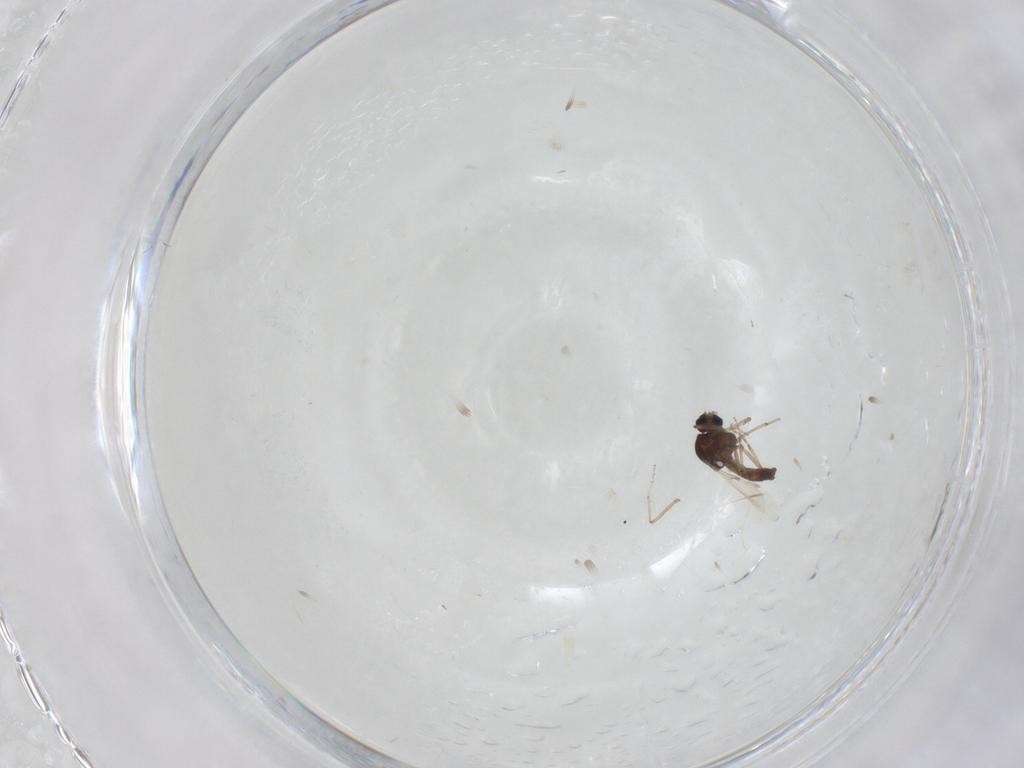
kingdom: Animalia
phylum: Arthropoda
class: Insecta
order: Diptera
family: Ceratopogonidae
